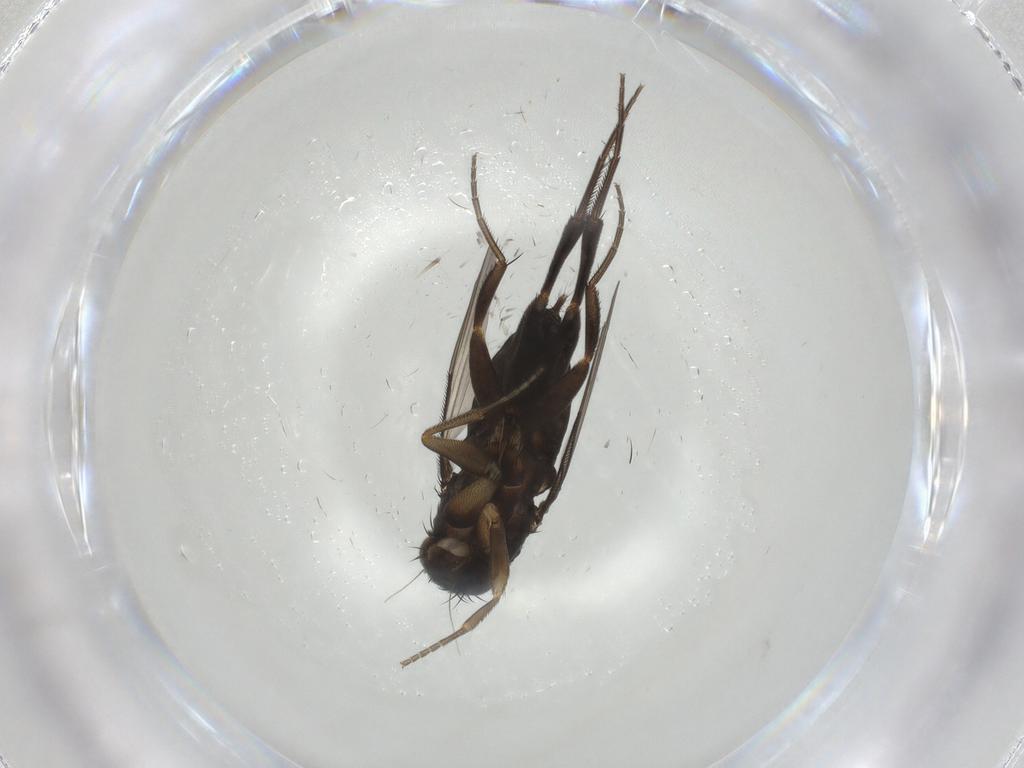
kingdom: Animalia
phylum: Arthropoda
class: Insecta
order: Diptera
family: Phoridae
